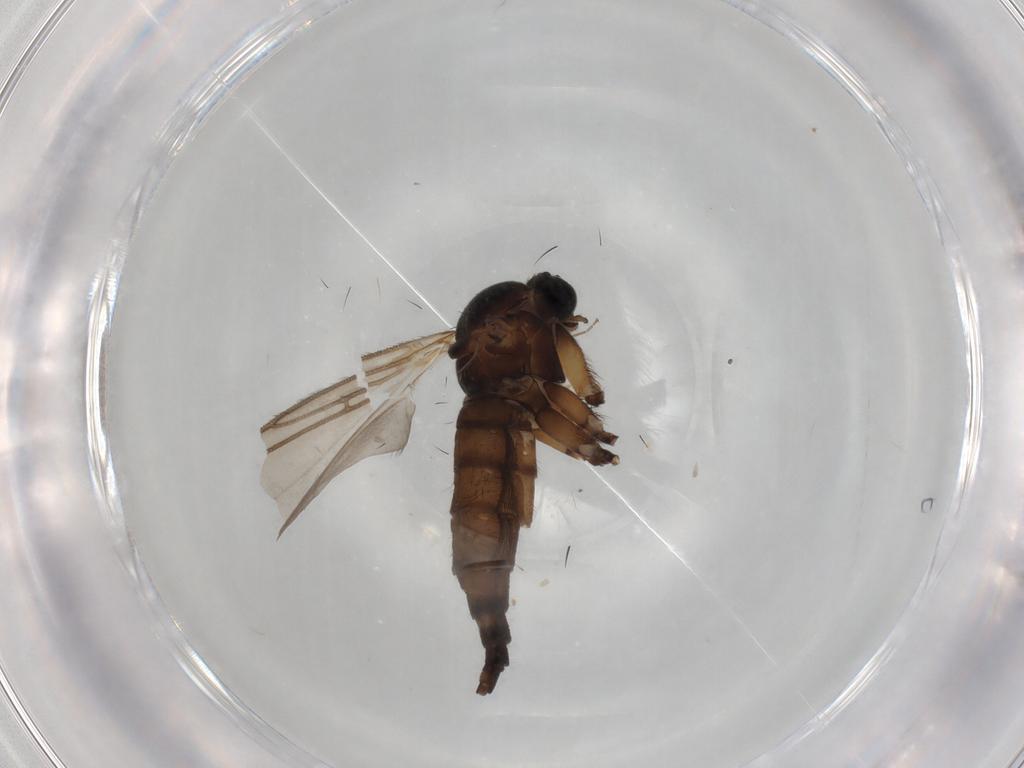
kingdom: Animalia
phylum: Arthropoda
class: Insecta
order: Diptera
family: Sciaridae
